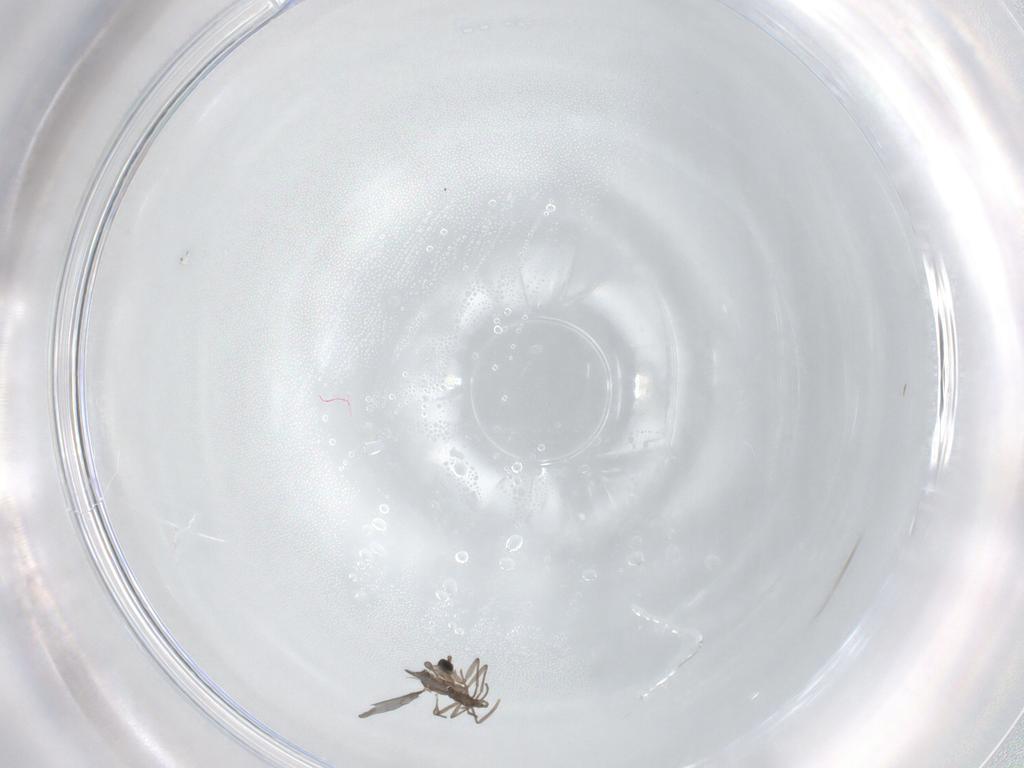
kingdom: Animalia
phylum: Arthropoda
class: Insecta
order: Diptera
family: Sciaridae
